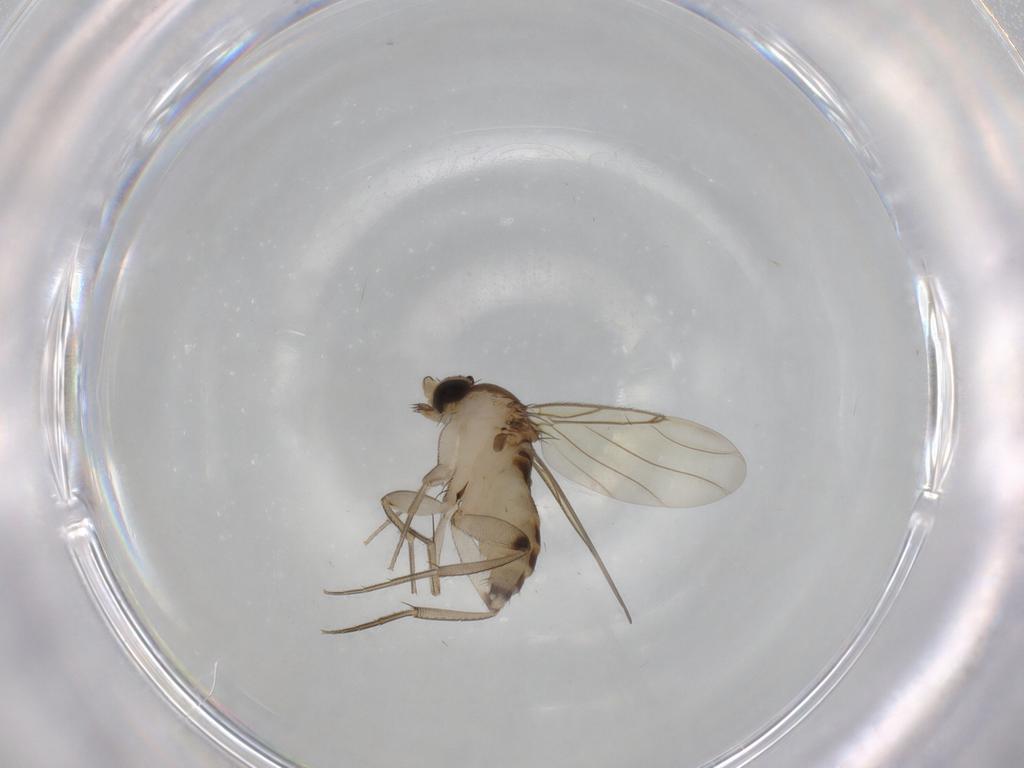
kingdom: Animalia
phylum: Arthropoda
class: Insecta
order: Diptera
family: Phoridae
